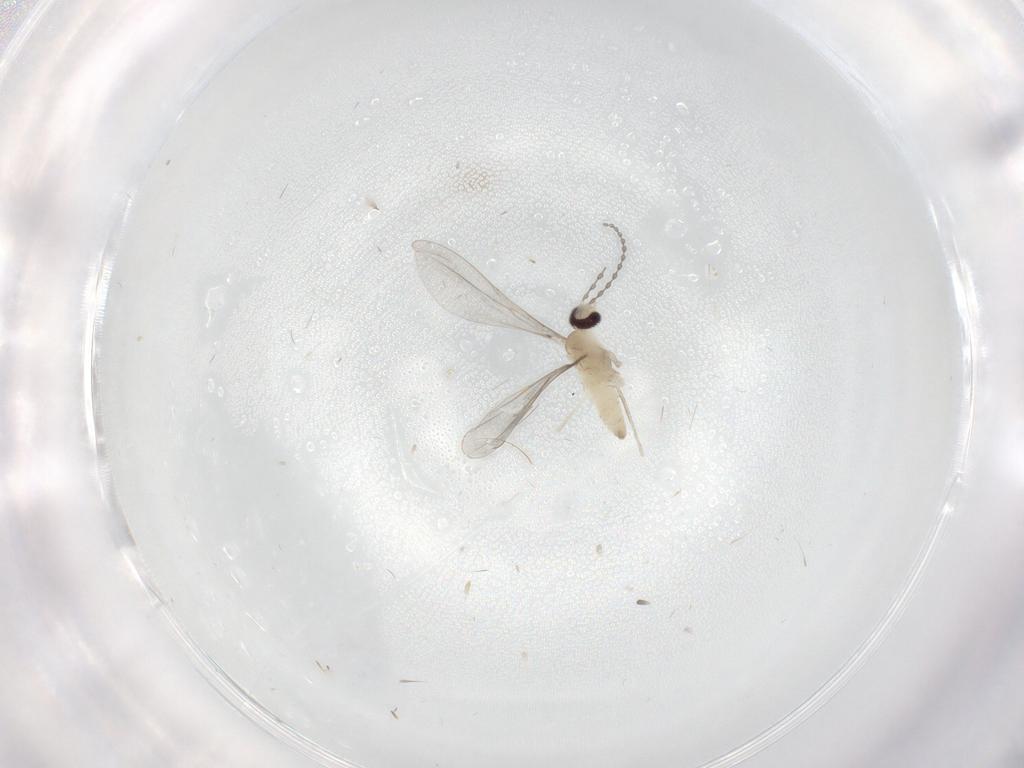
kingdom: Animalia
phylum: Arthropoda
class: Insecta
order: Diptera
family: Cecidomyiidae
